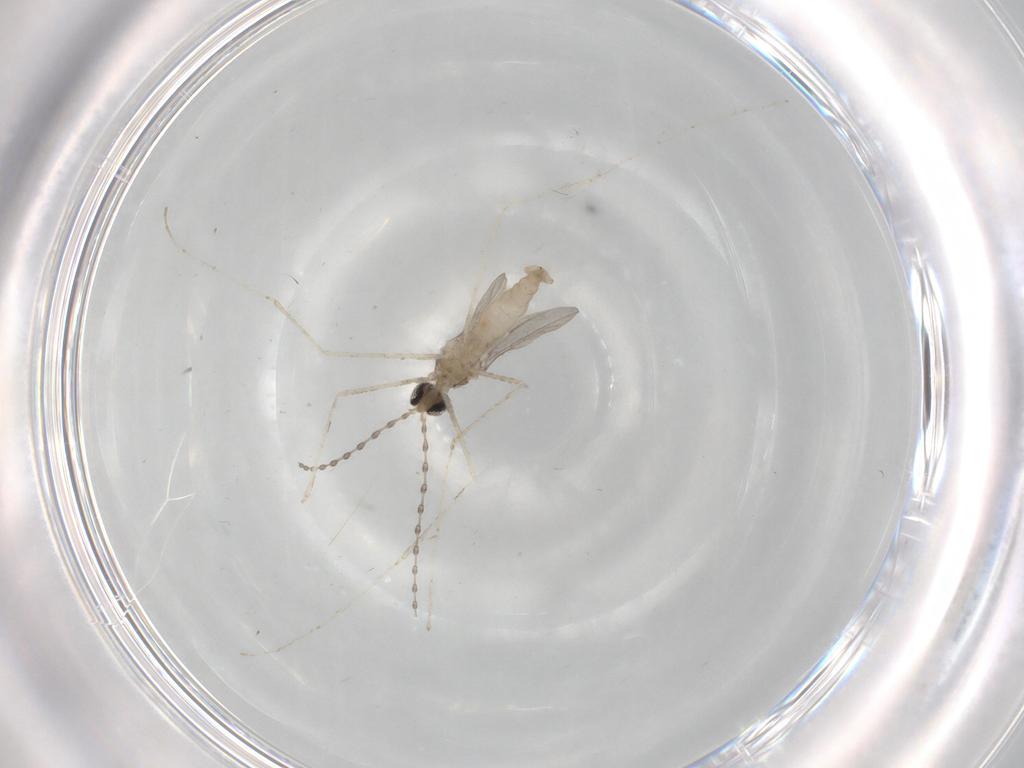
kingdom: Animalia
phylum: Arthropoda
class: Insecta
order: Diptera
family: Cecidomyiidae
